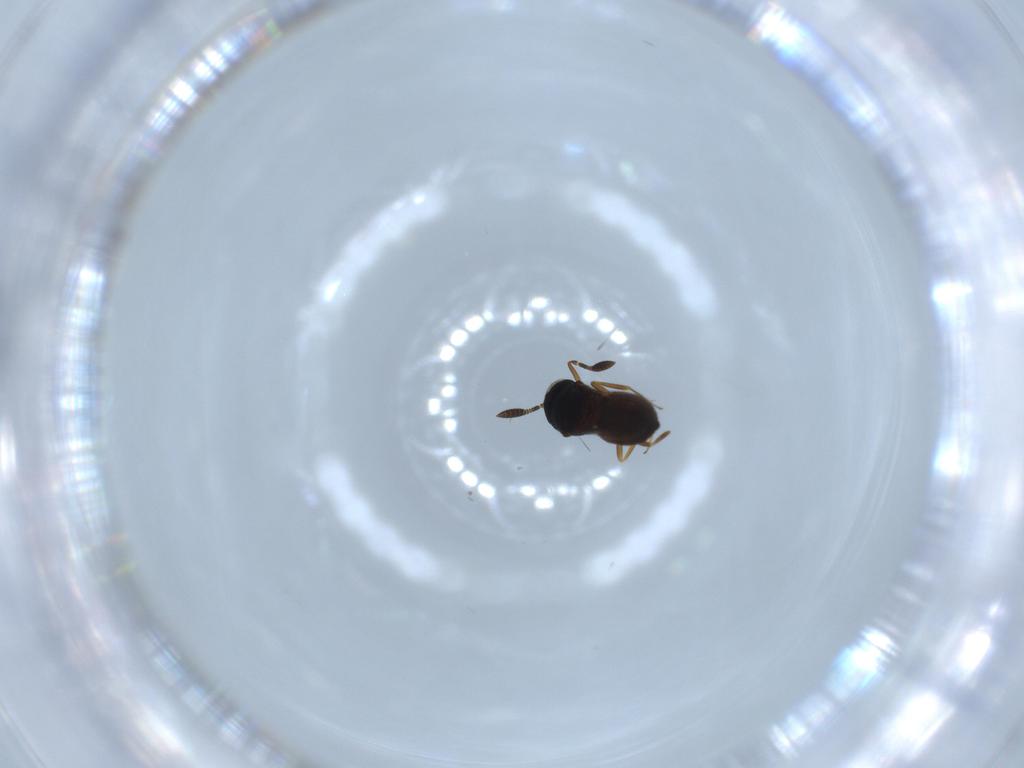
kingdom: Animalia
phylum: Arthropoda
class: Insecta
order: Hymenoptera
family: Scelionidae
